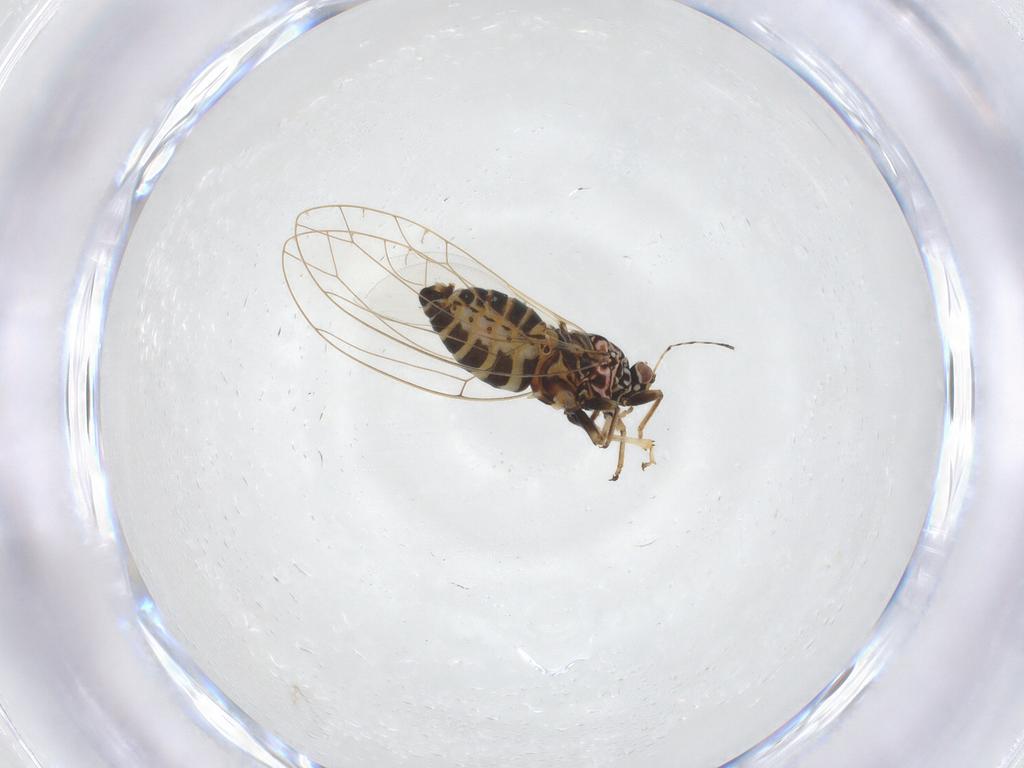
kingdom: Animalia
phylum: Arthropoda
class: Insecta
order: Hemiptera
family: Triozidae
